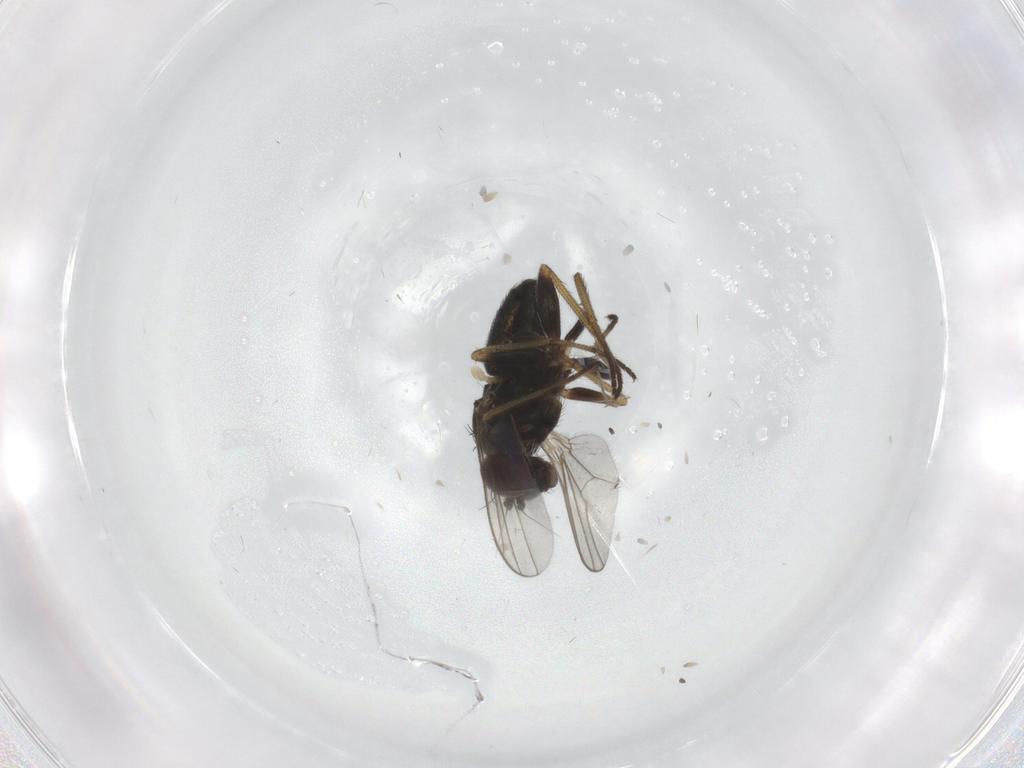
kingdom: Animalia
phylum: Arthropoda
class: Insecta
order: Diptera
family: Dolichopodidae
